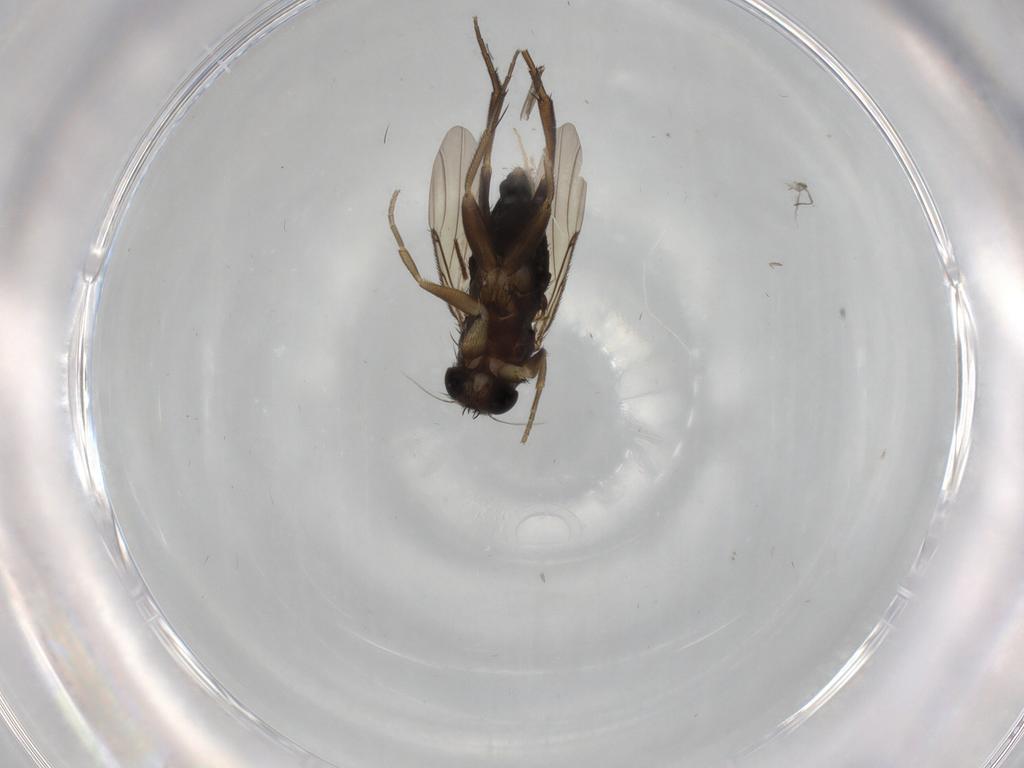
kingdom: Animalia
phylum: Arthropoda
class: Insecta
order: Diptera
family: Phoridae
